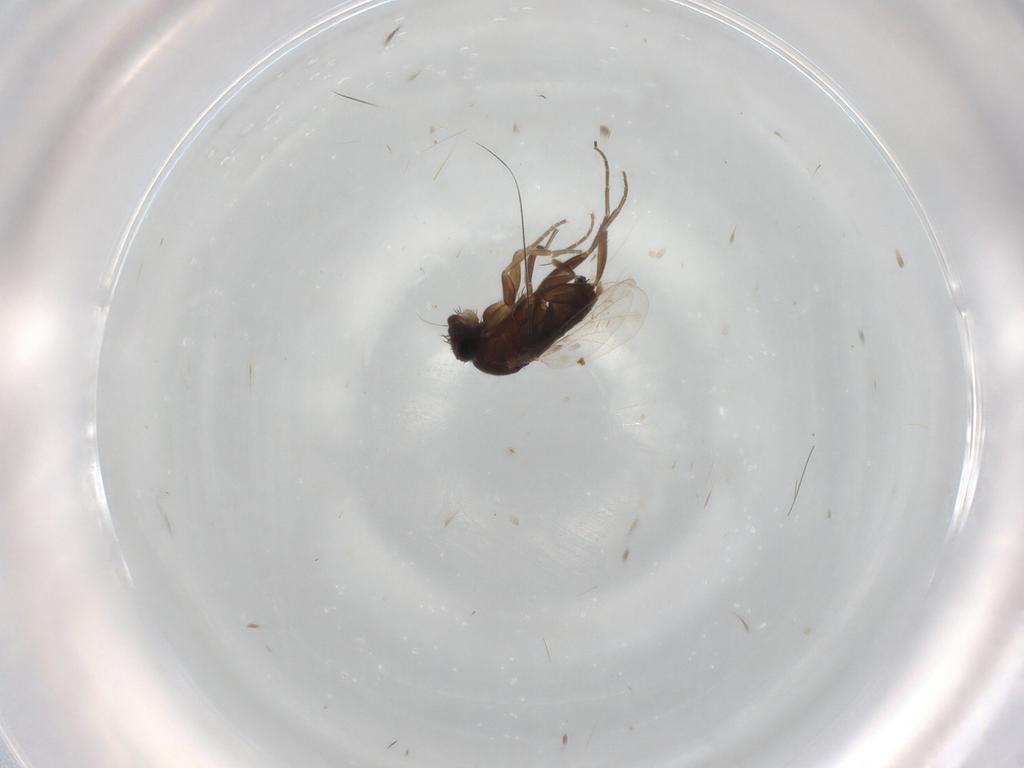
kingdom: Animalia
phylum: Arthropoda
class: Insecta
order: Diptera
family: Phoridae
